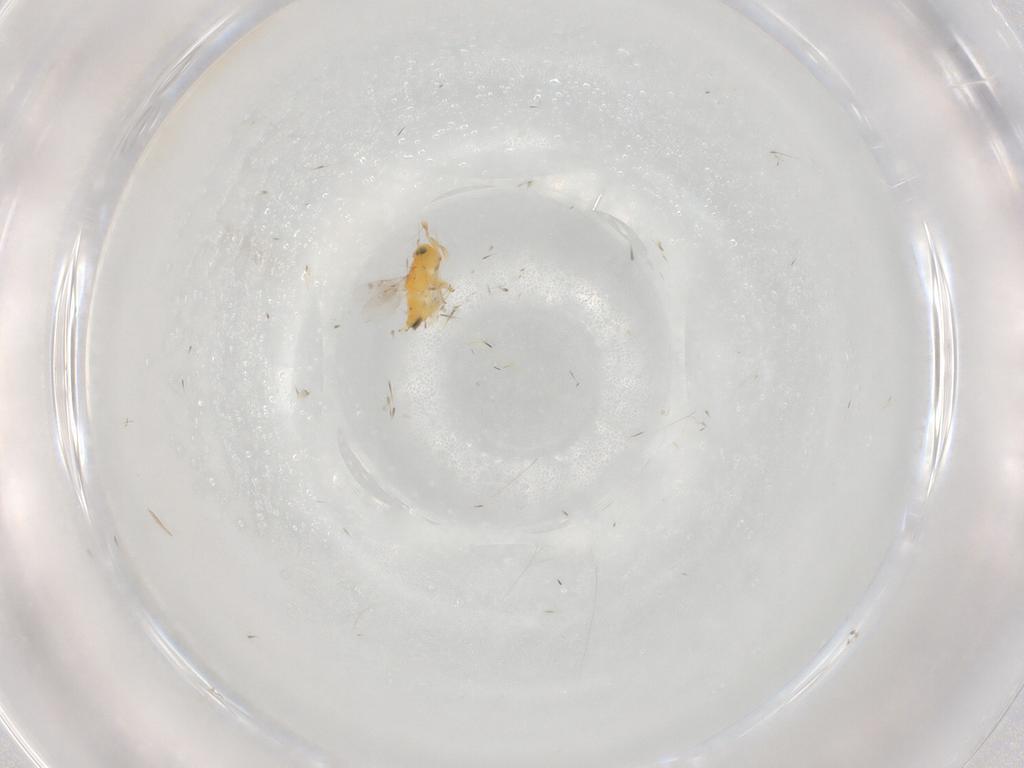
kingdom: Animalia
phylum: Arthropoda
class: Insecta
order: Hymenoptera
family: Encyrtidae
